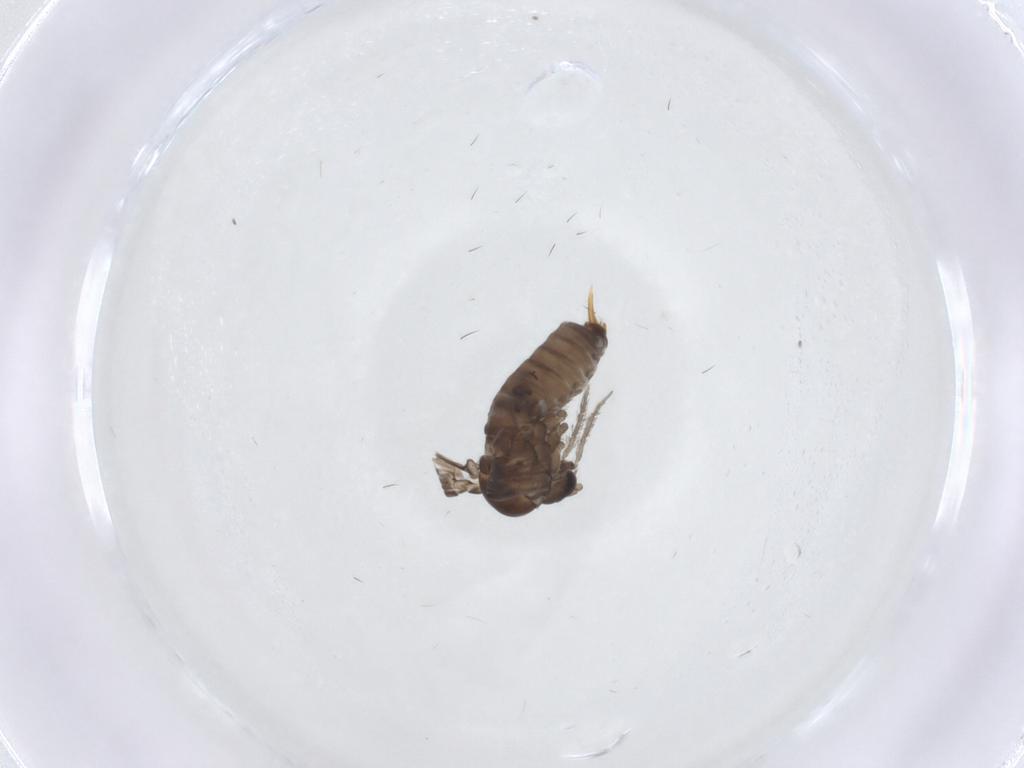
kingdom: Animalia
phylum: Arthropoda
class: Insecta
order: Diptera
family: Psychodidae
